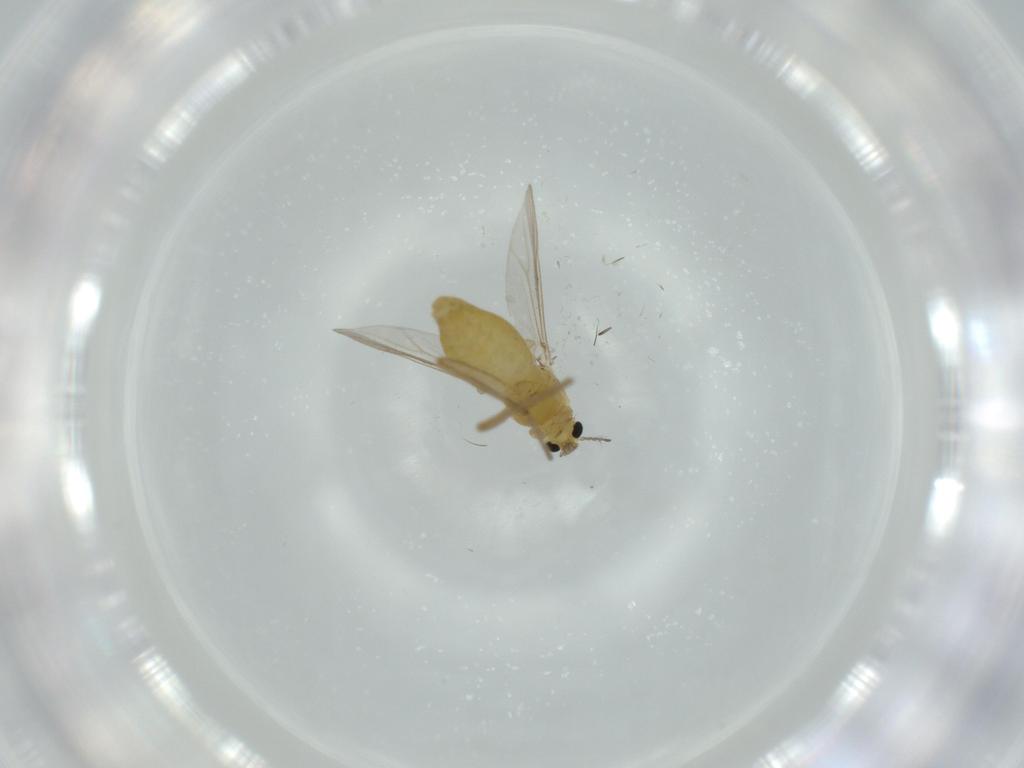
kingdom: Animalia
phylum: Arthropoda
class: Insecta
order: Diptera
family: Chironomidae
